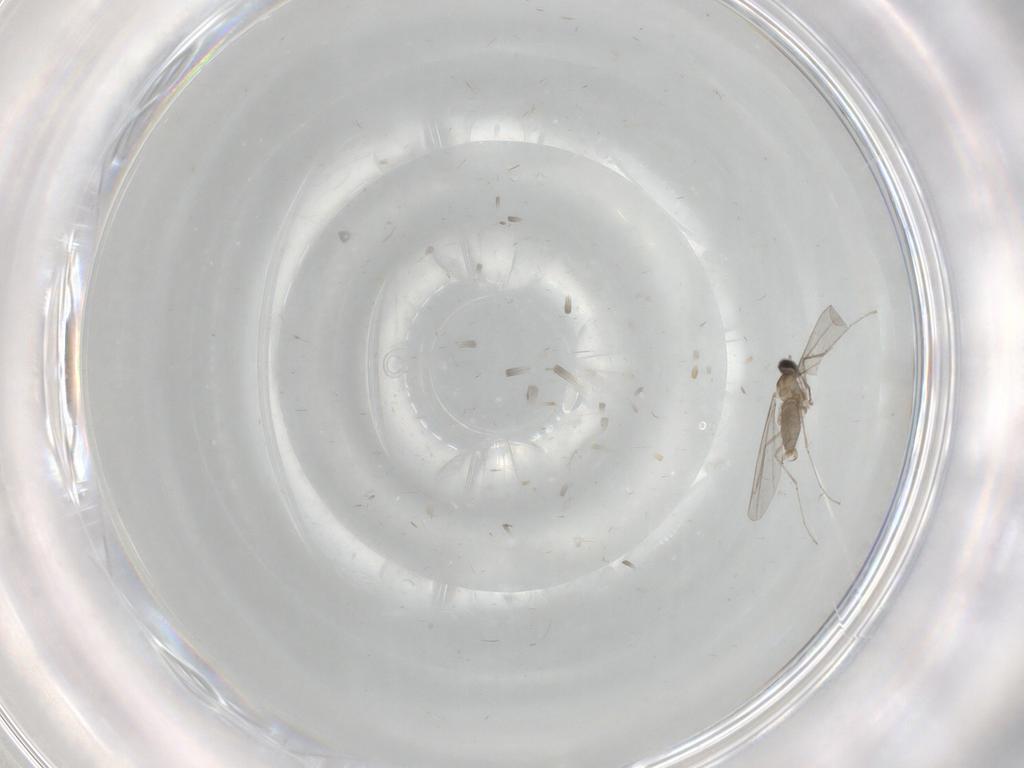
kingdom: Animalia
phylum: Arthropoda
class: Insecta
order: Diptera
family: Cecidomyiidae
